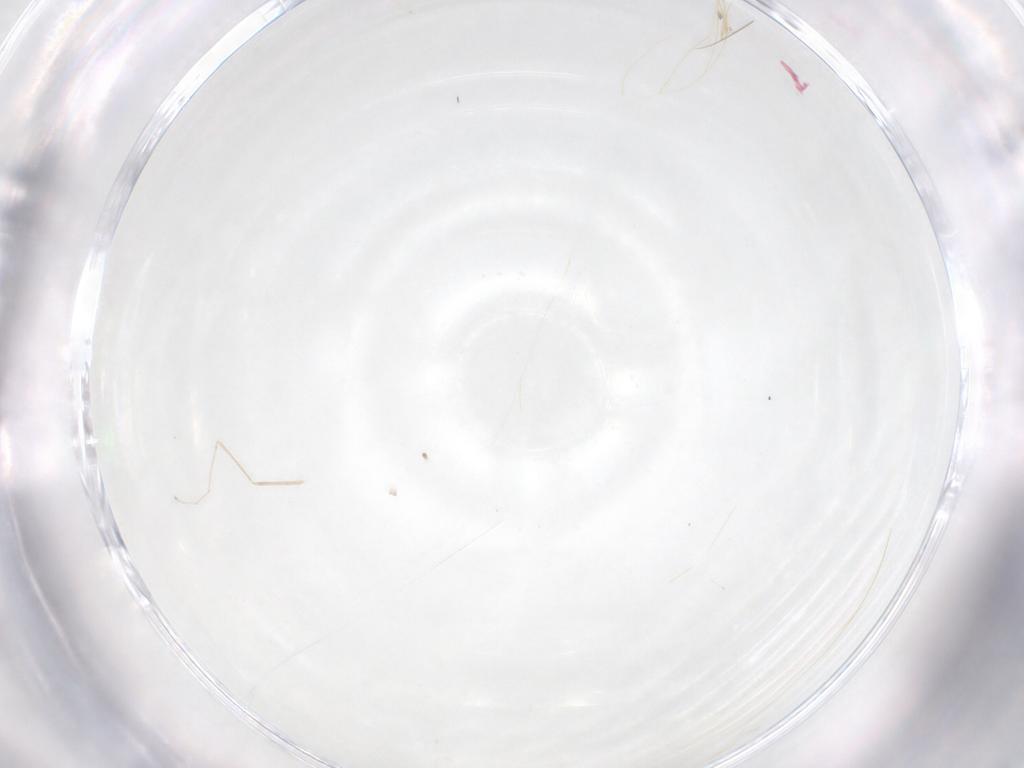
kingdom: Animalia
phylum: Arthropoda
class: Insecta
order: Diptera
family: Cecidomyiidae
